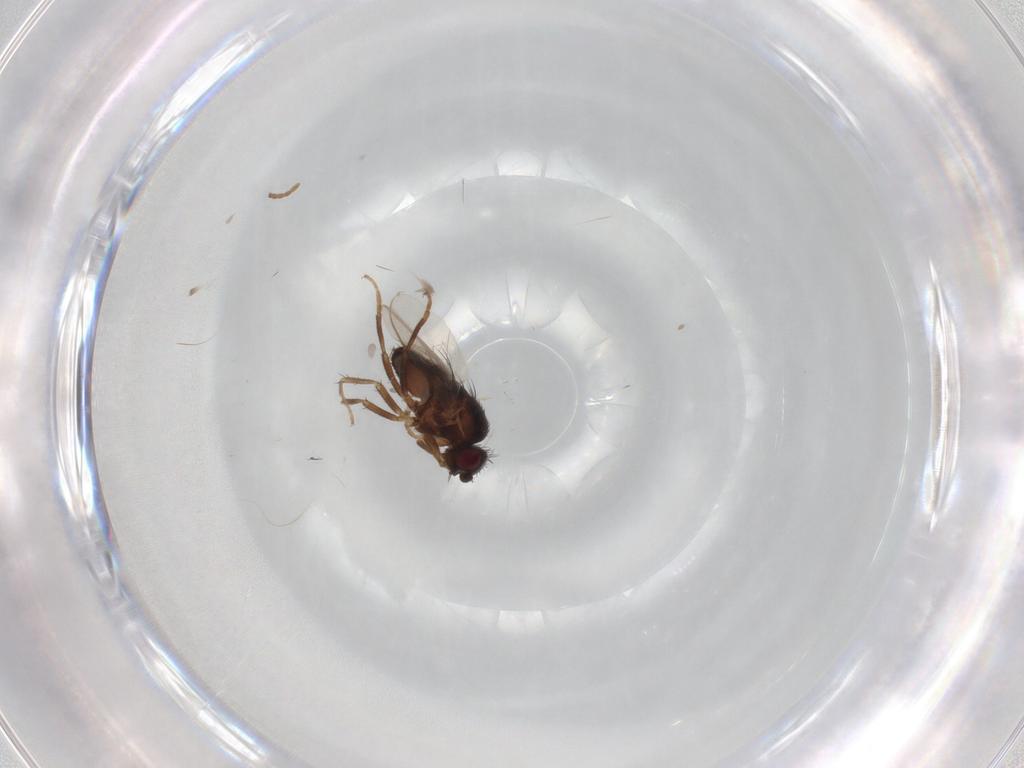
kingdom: Animalia
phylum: Arthropoda
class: Insecta
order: Diptera
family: Sphaeroceridae
